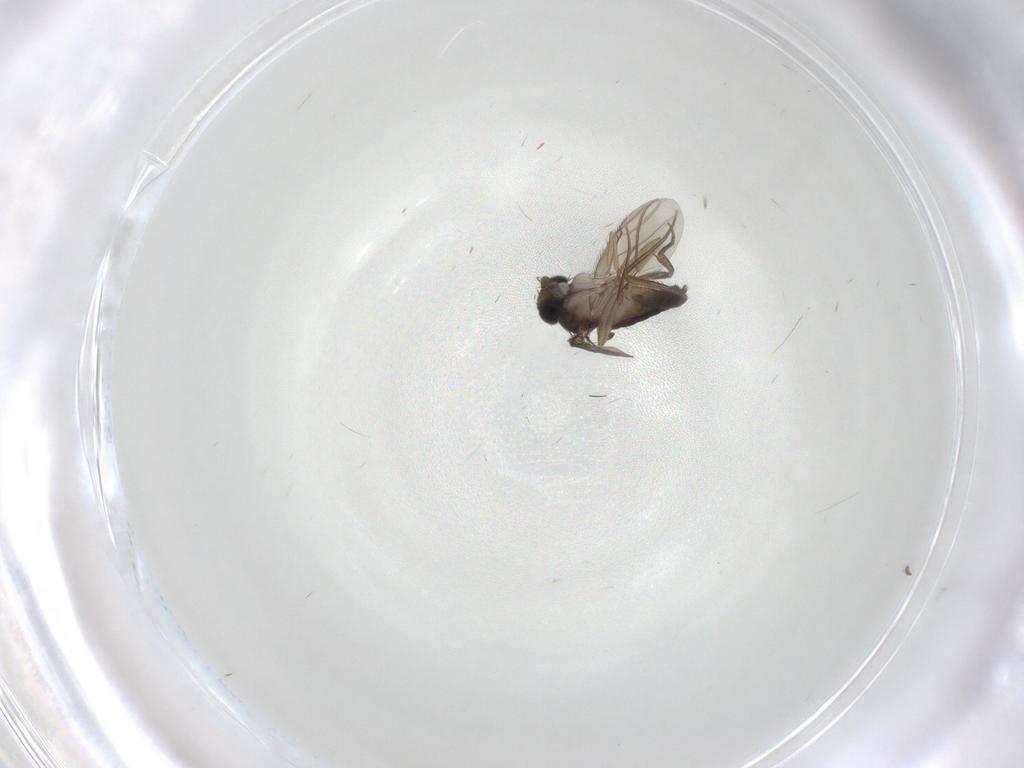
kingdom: Animalia
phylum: Arthropoda
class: Insecta
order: Diptera
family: Phoridae
